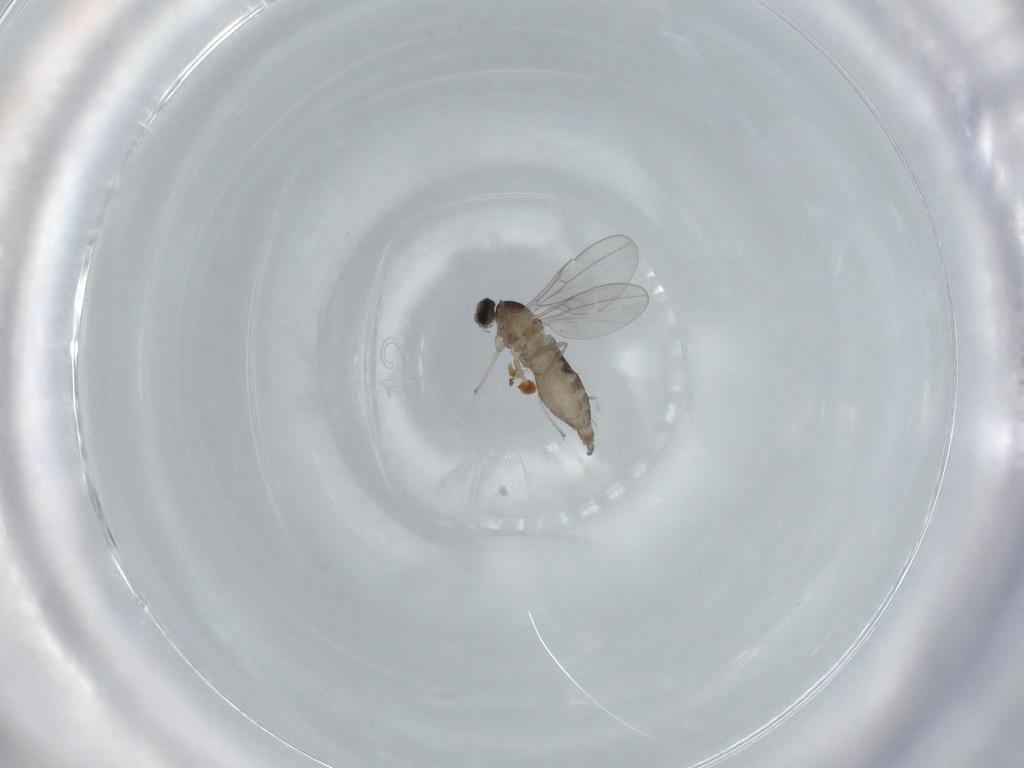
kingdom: Animalia
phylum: Arthropoda
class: Insecta
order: Diptera
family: Cecidomyiidae
